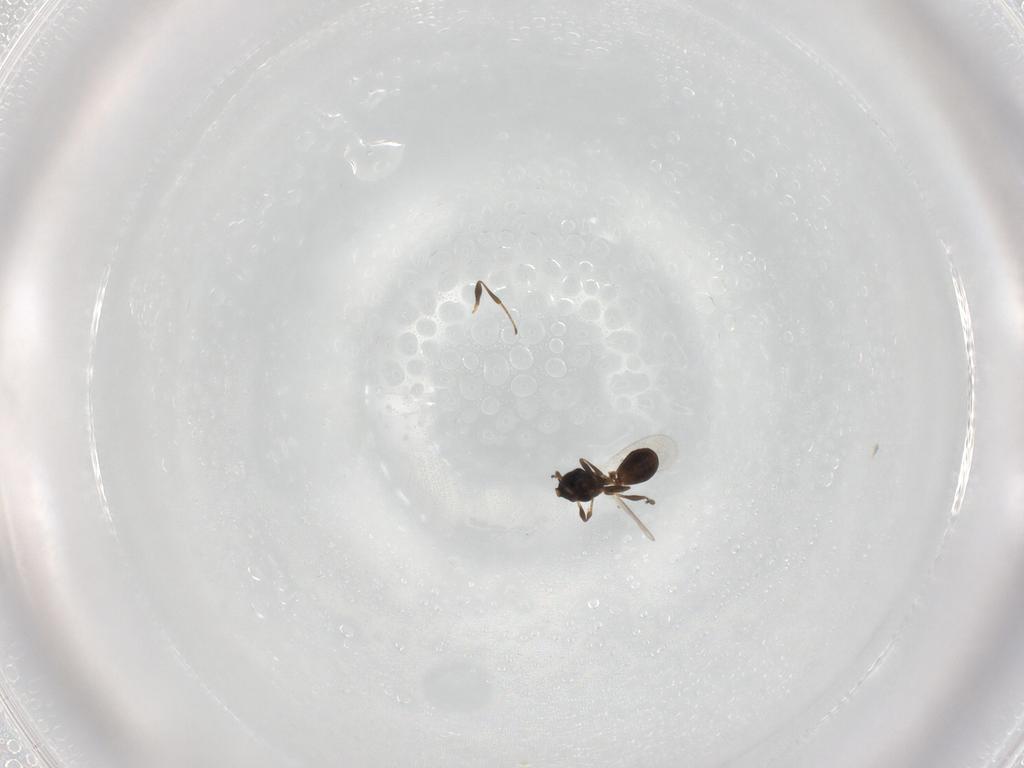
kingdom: Animalia
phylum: Arthropoda
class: Insecta
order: Hymenoptera
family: Platygastridae
